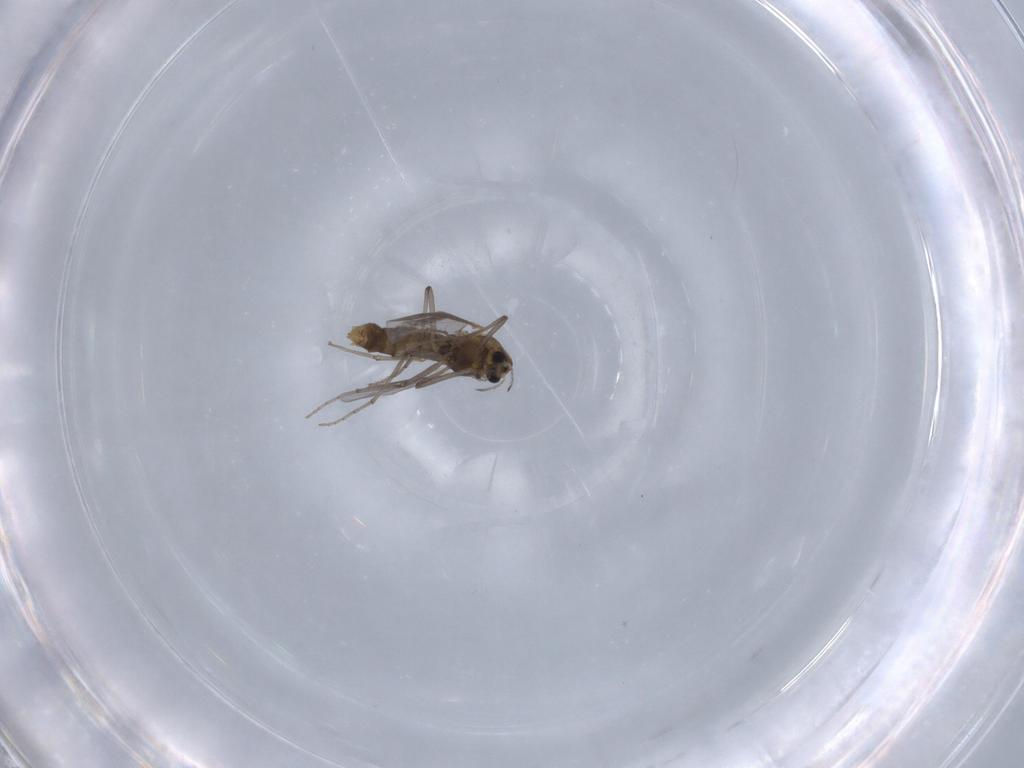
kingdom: Animalia
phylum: Arthropoda
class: Insecta
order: Diptera
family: Chironomidae
